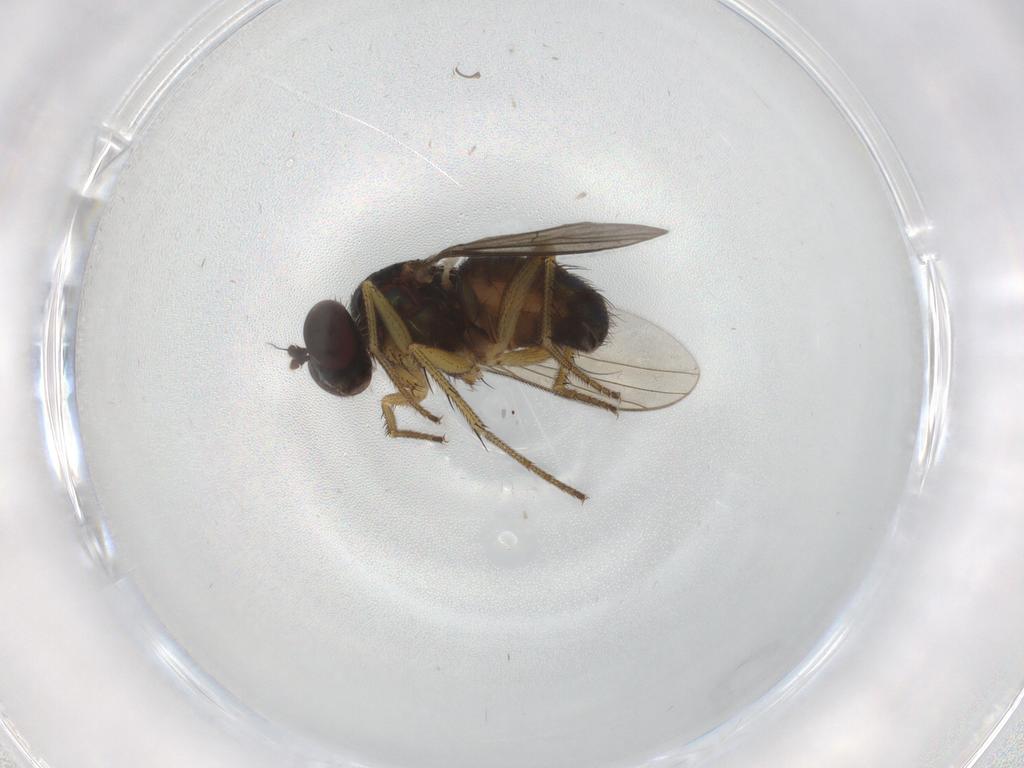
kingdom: Animalia
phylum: Arthropoda
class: Insecta
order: Diptera
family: Dolichopodidae
